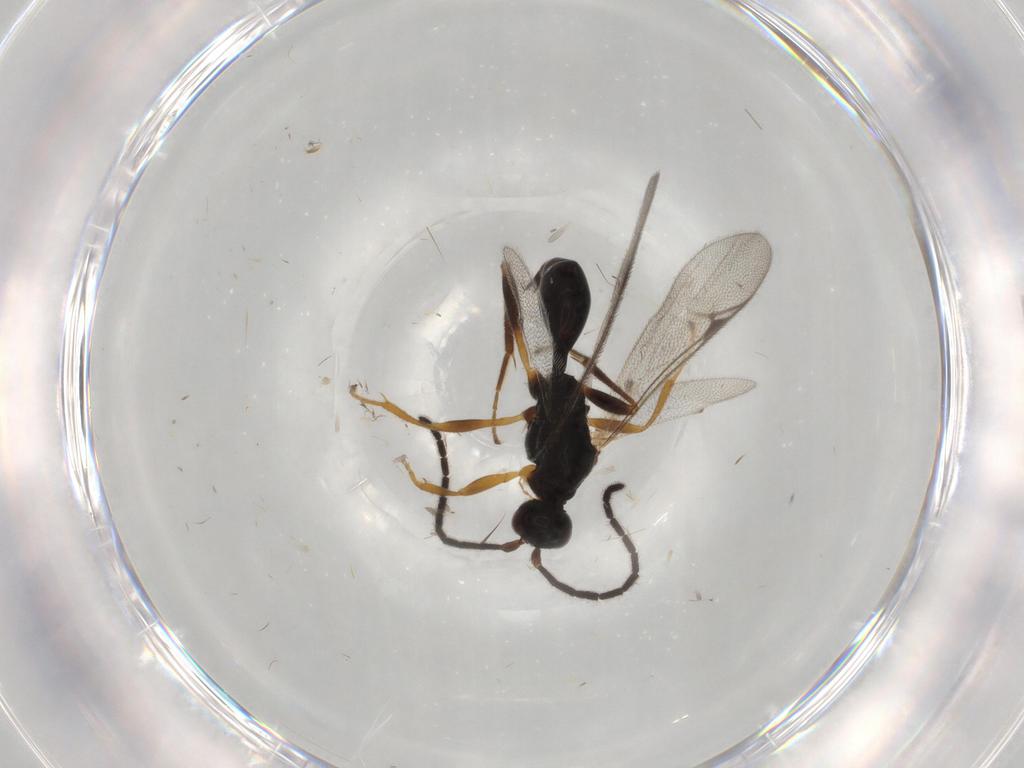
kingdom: Animalia
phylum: Arthropoda
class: Insecta
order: Hymenoptera
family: Proctotrupidae
